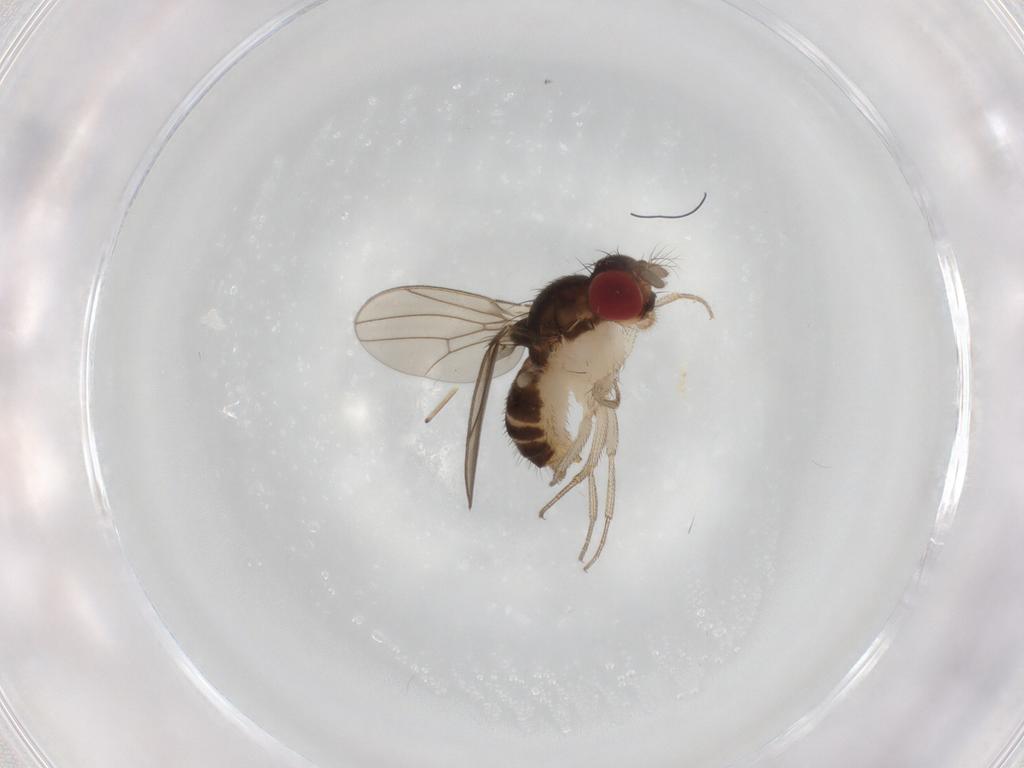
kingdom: Animalia
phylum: Arthropoda
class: Insecta
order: Diptera
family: Drosophilidae
